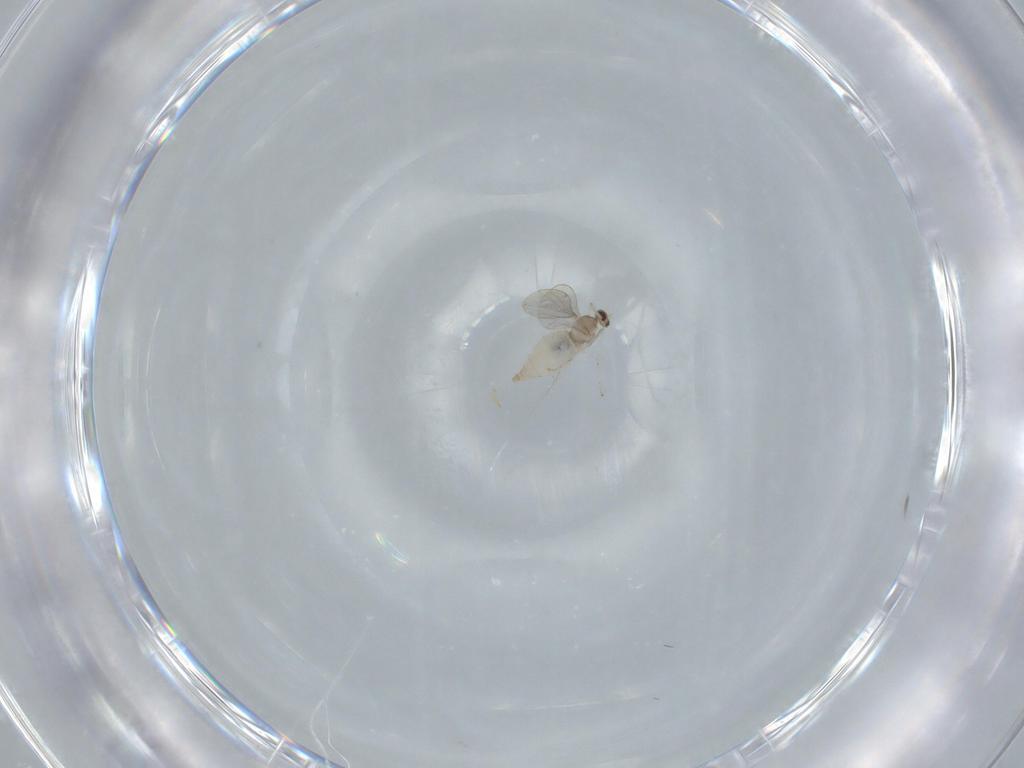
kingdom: Animalia
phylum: Arthropoda
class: Insecta
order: Diptera
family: Cecidomyiidae
